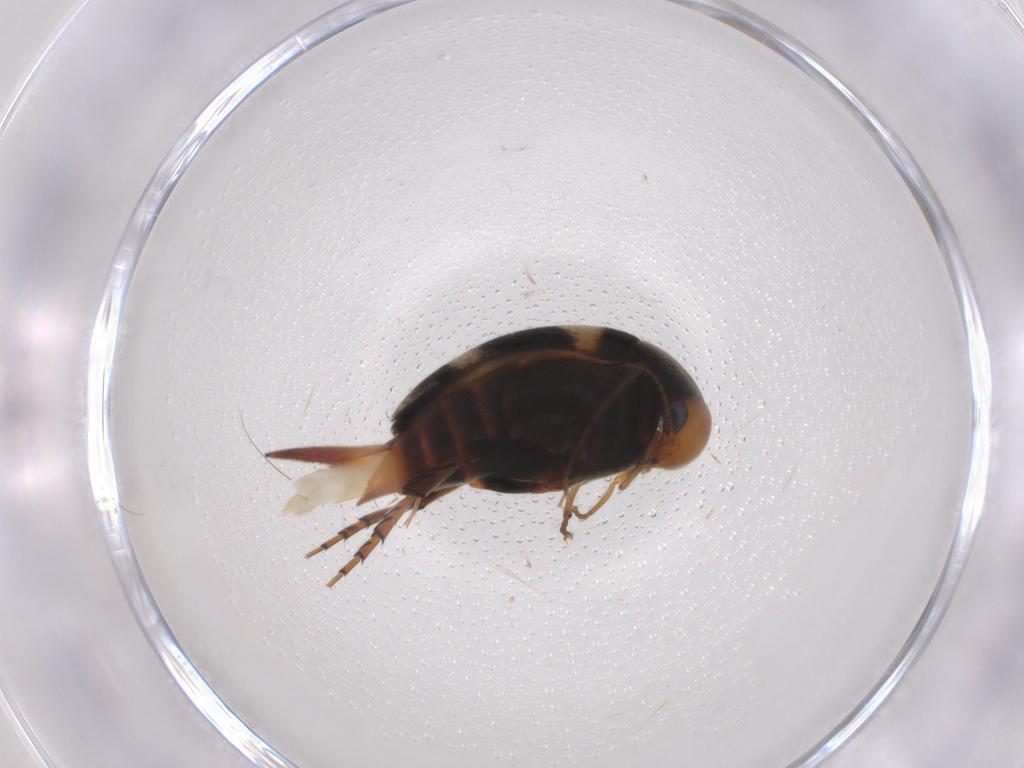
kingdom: Animalia
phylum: Arthropoda
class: Insecta
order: Coleoptera
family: Mordellidae
